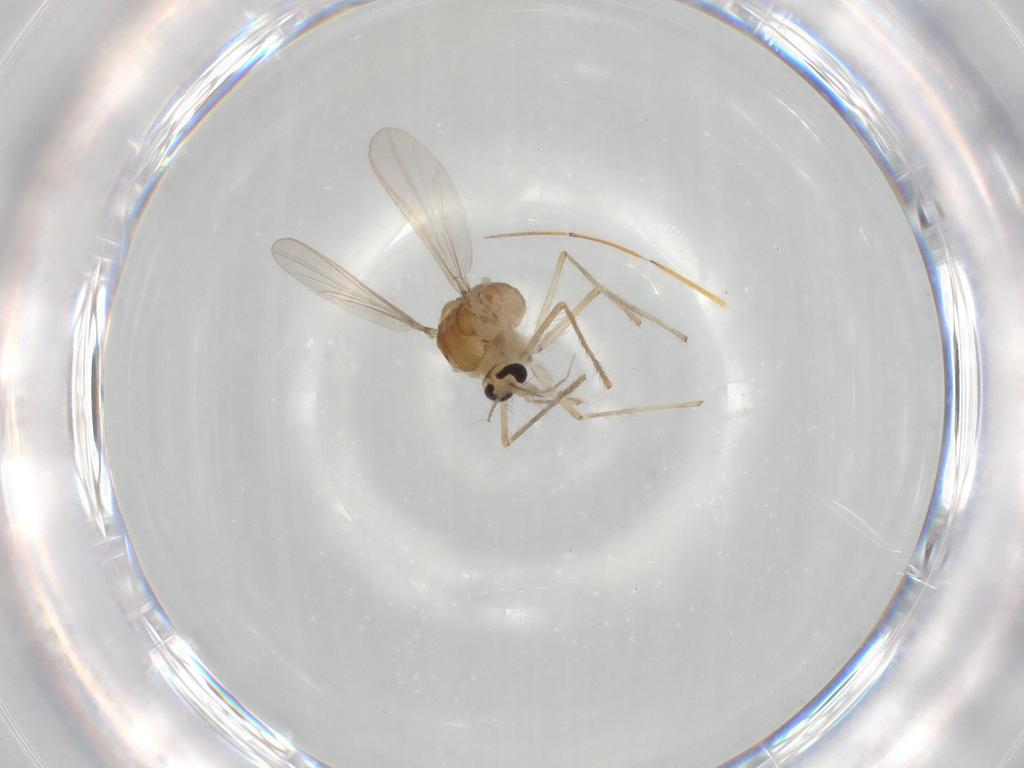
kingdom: Animalia
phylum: Arthropoda
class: Insecta
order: Diptera
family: Chironomidae
